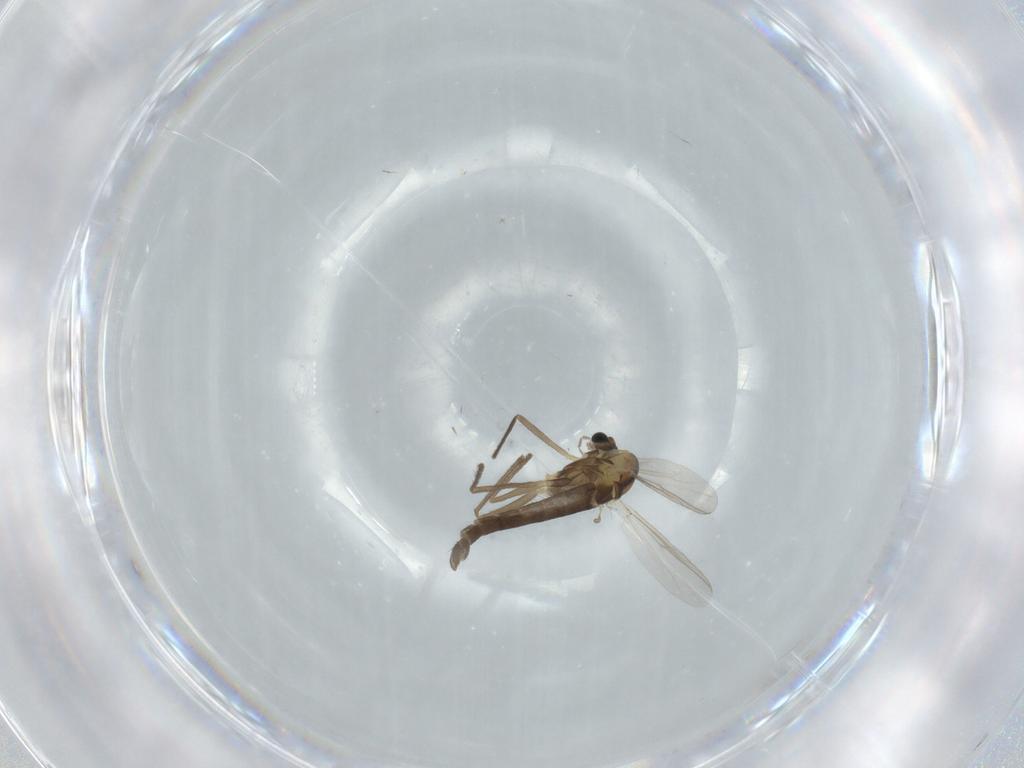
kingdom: Animalia
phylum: Arthropoda
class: Insecta
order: Diptera
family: Chironomidae
